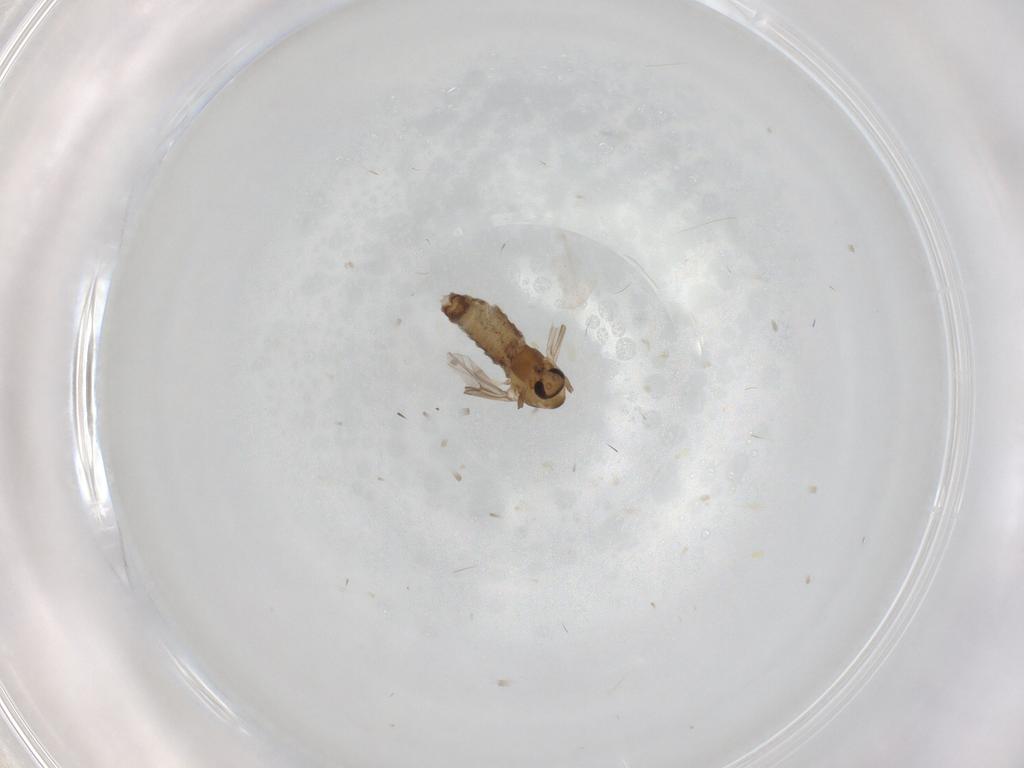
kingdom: Animalia
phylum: Arthropoda
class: Insecta
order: Diptera
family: Chironomidae
